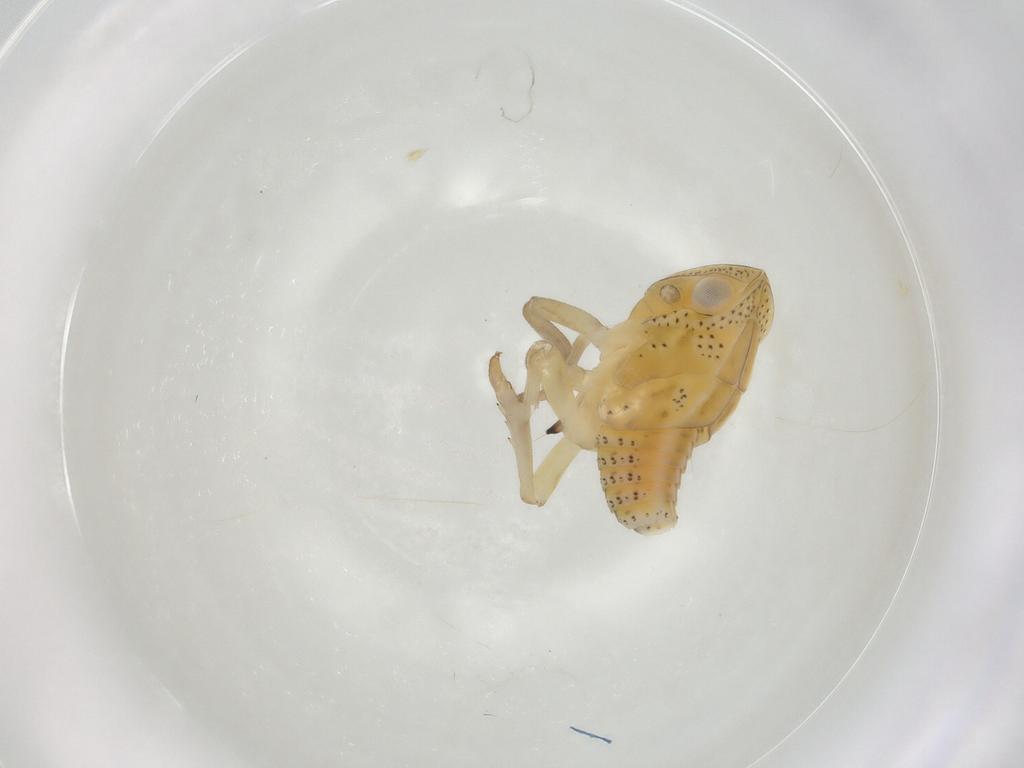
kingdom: Animalia
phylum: Arthropoda
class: Insecta
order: Hemiptera
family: Tropiduchidae
